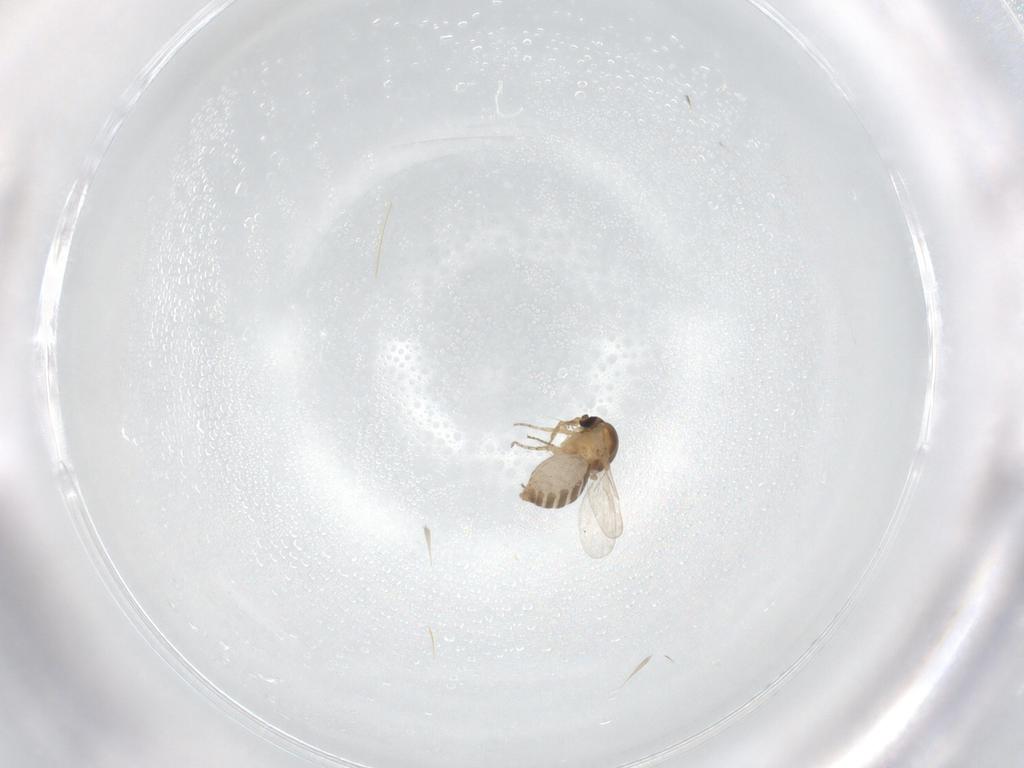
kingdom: Animalia
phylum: Arthropoda
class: Insecta
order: Diptera
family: Ceratopogonidae
